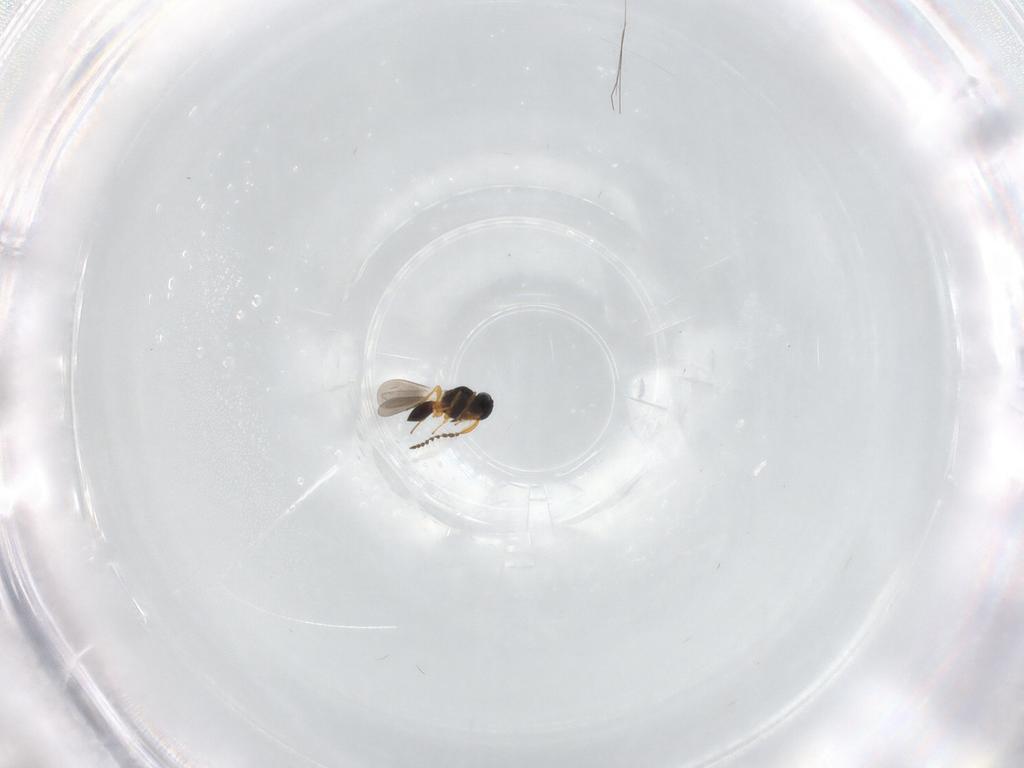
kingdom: Animalia
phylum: Arthropoda
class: Insecta
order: Hymenoptera
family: Platygastridae
